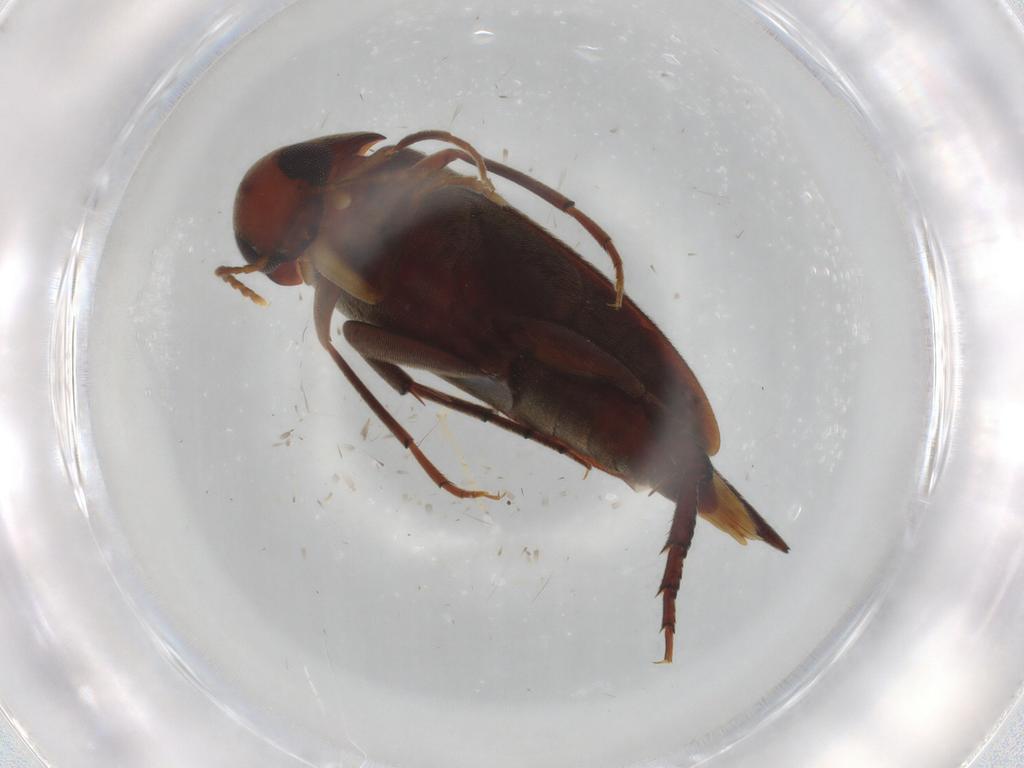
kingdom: Animalia
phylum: Arthropoda
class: Insecta
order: Coleoptera
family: Mordellidae
